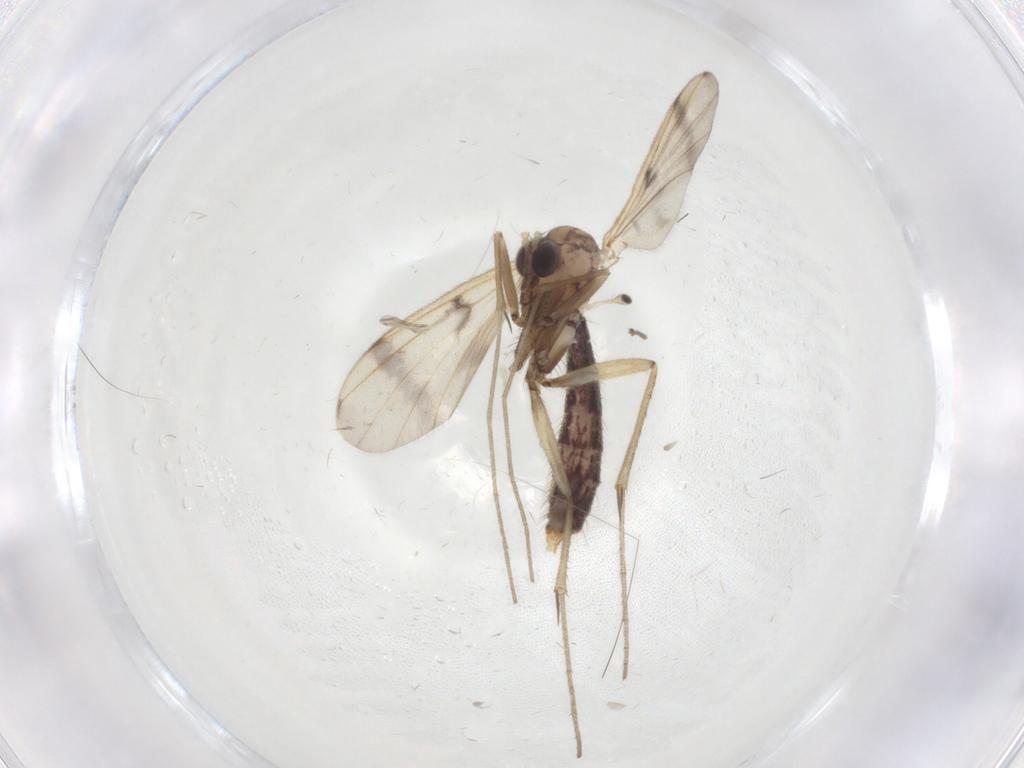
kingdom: Animalia
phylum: Arthropoda
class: Insecta
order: Diptera
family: Mycetophilidae
